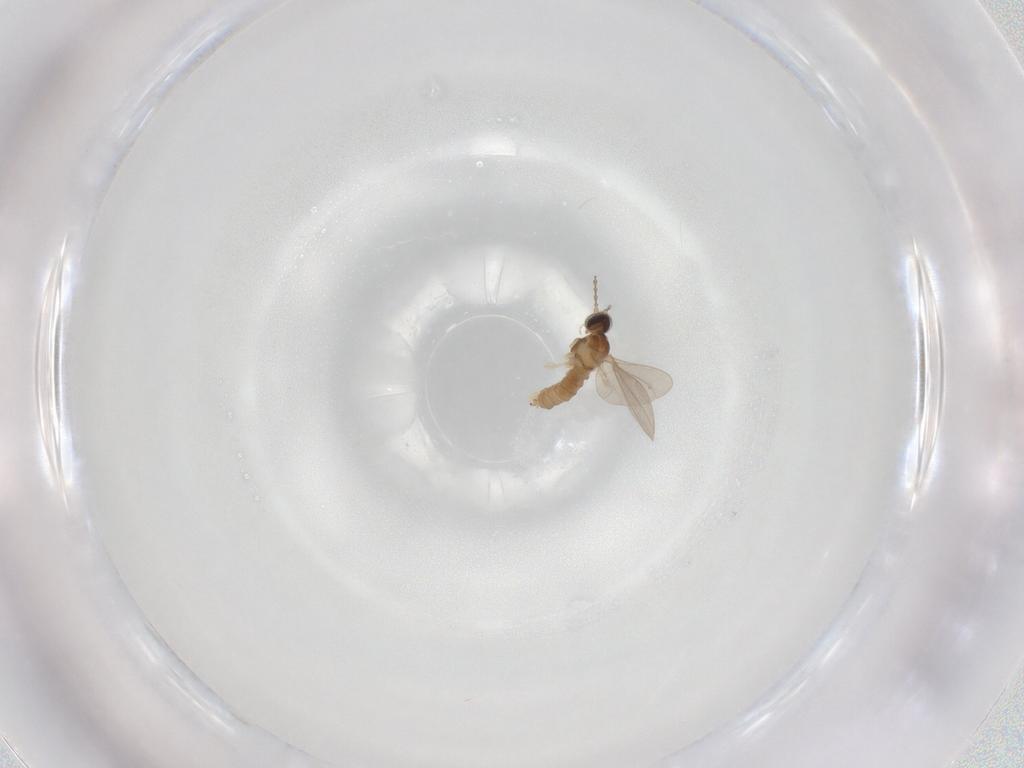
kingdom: Animalia
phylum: Arthropoda
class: Insecta
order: Diptera
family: Cecidomyiidae
